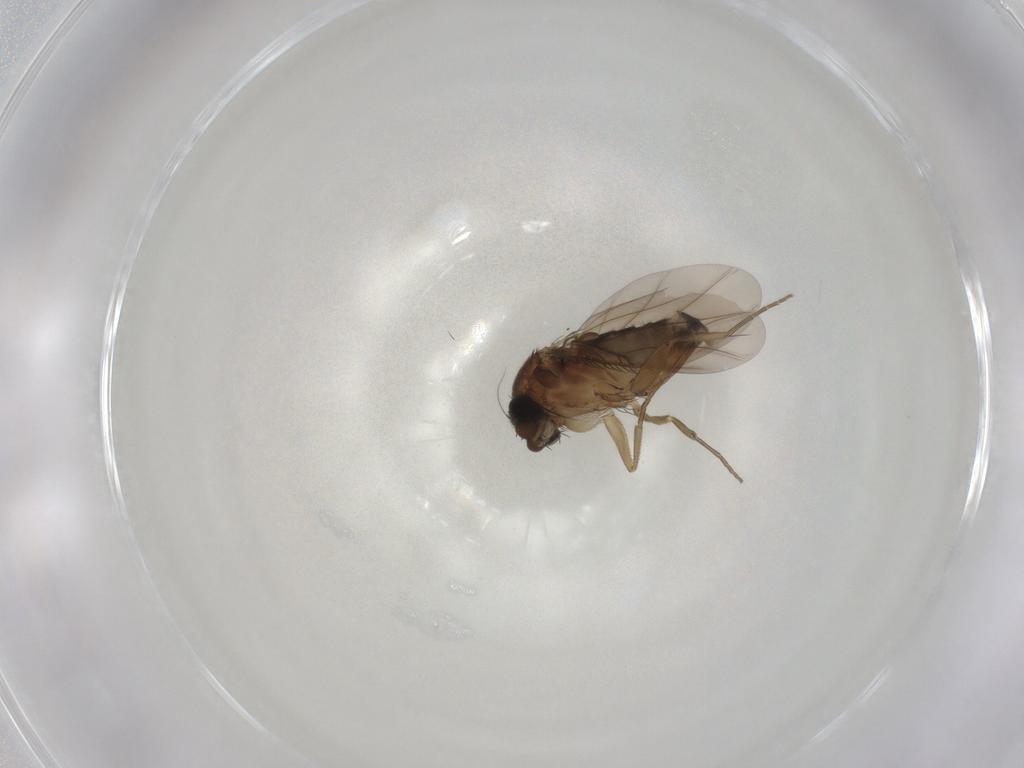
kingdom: Animalia
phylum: Arthropoda
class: Insecta
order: Diptera
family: Phoridae
